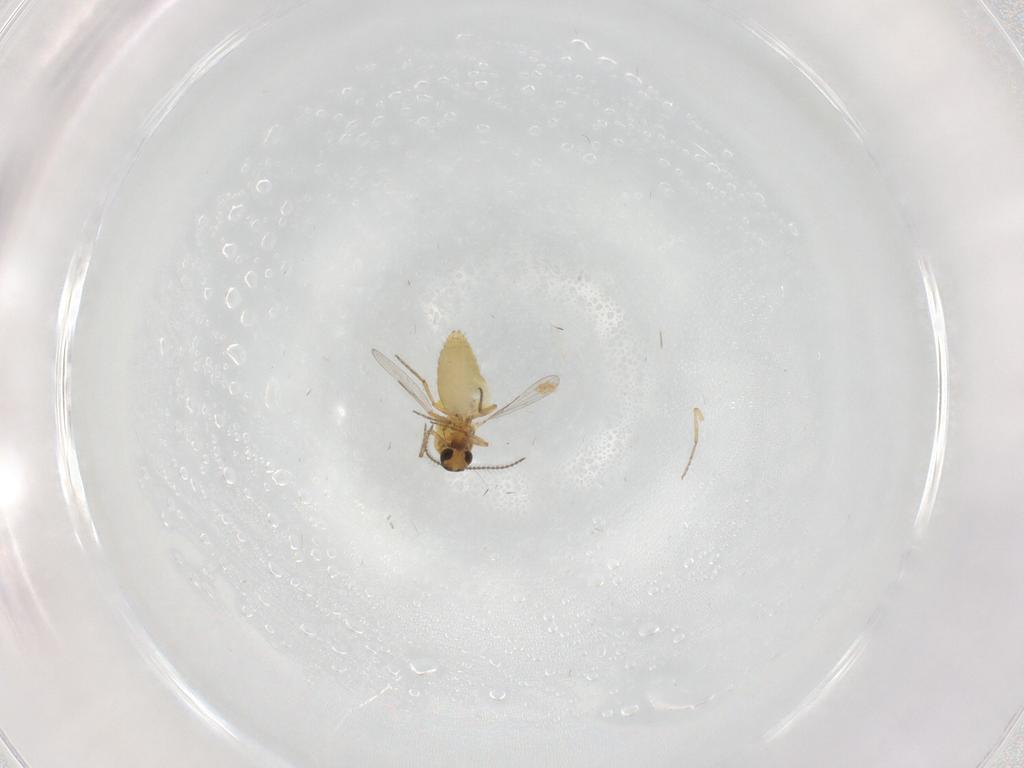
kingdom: Animalia
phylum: Arthropoda
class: Insecta
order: Diptera
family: Ceratopogonidae
